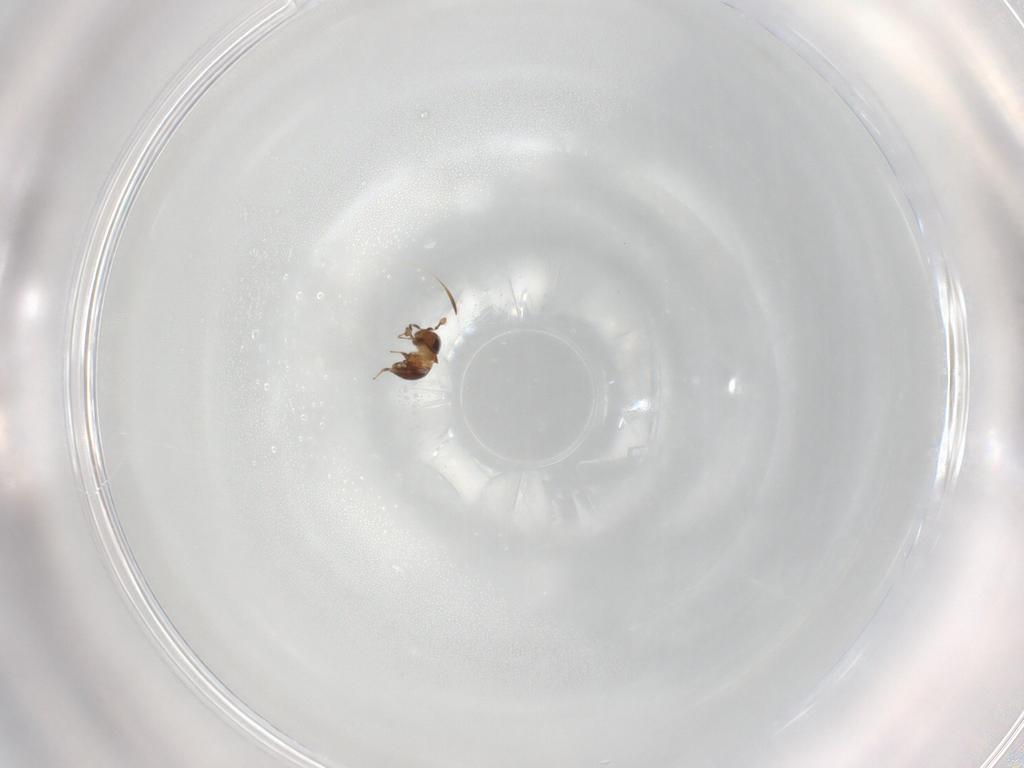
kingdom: Animalia
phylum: Arthropoda
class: Insecta
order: Hymenoptera
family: Scelionidae
